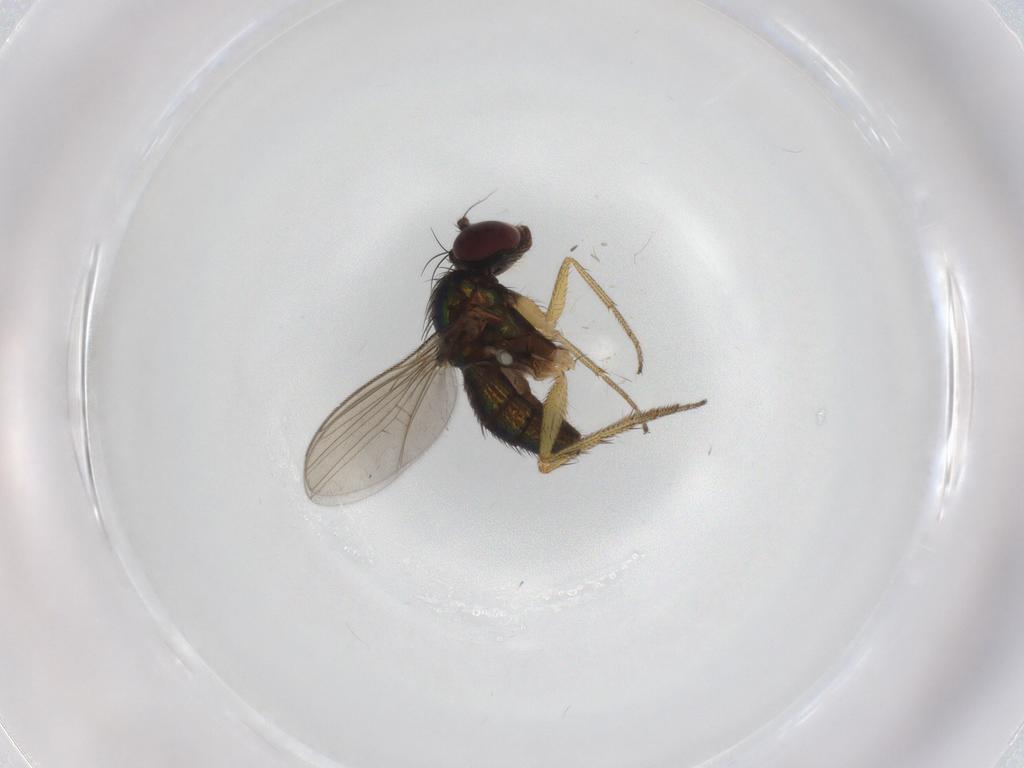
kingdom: Animalia
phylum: Arthropoda
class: Insecta
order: Diptera
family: Dolichopodidae
